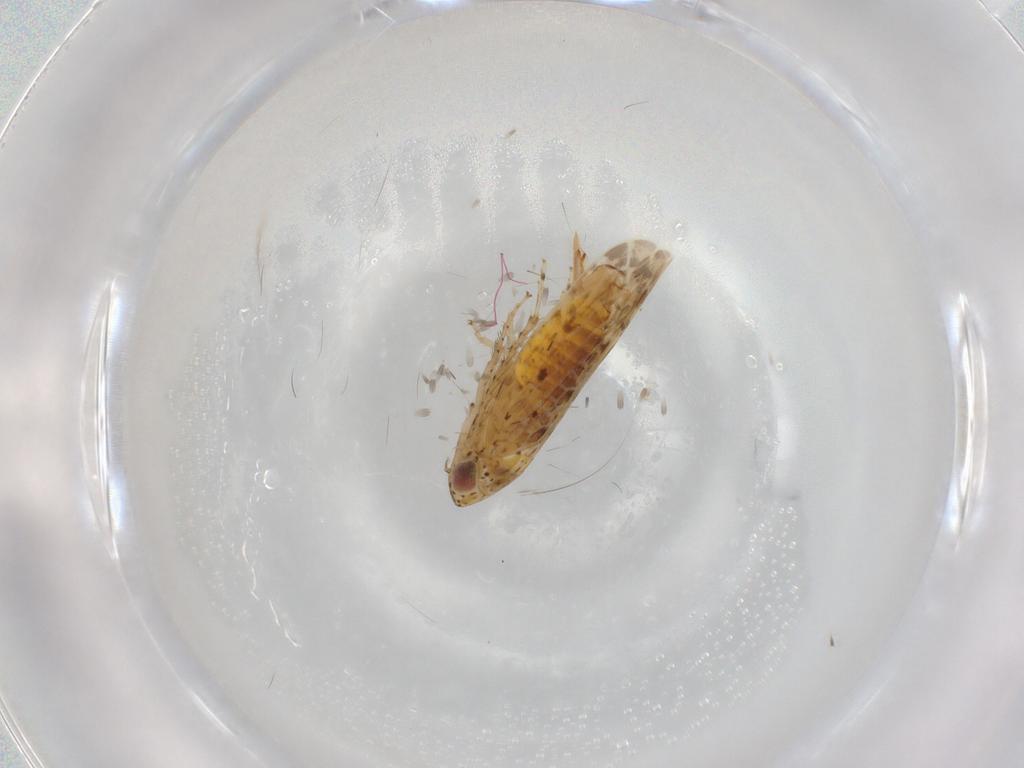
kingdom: Animalia
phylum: Arthropoda
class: Insecta
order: Hemiptera
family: Cicadellidae
